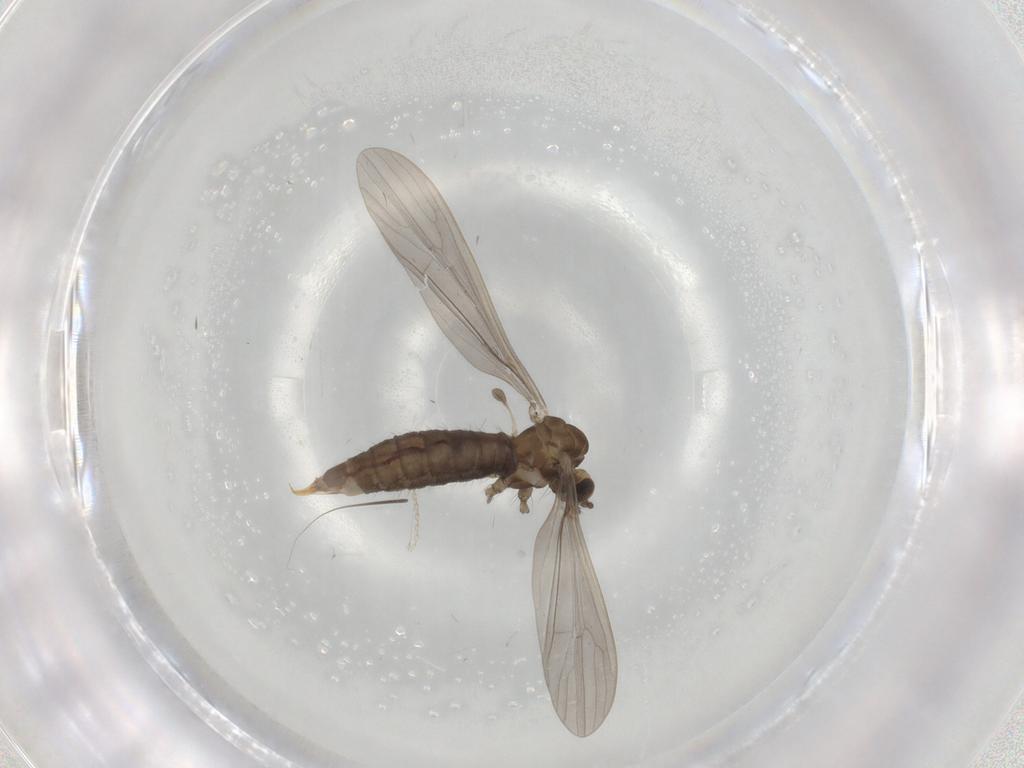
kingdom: Animalia
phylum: Arthropoda
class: Insecta
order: Diptera
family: Limoniidae
